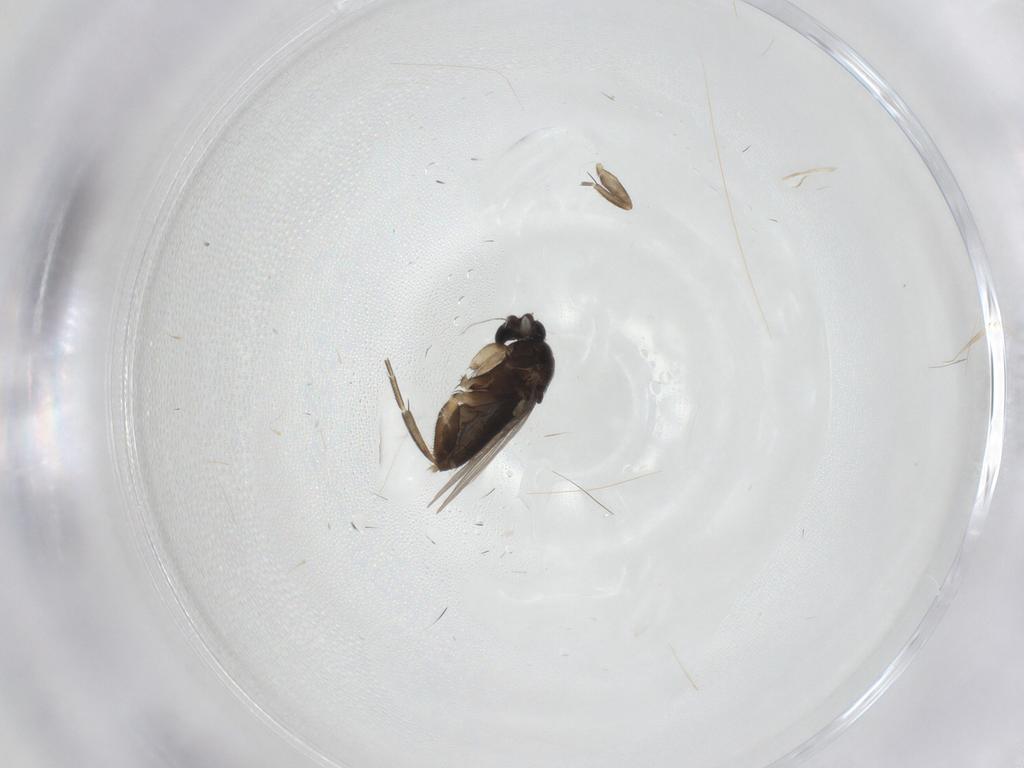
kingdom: Animalia
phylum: Arthropoda
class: Insecta
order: Diptera
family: Phoridae
